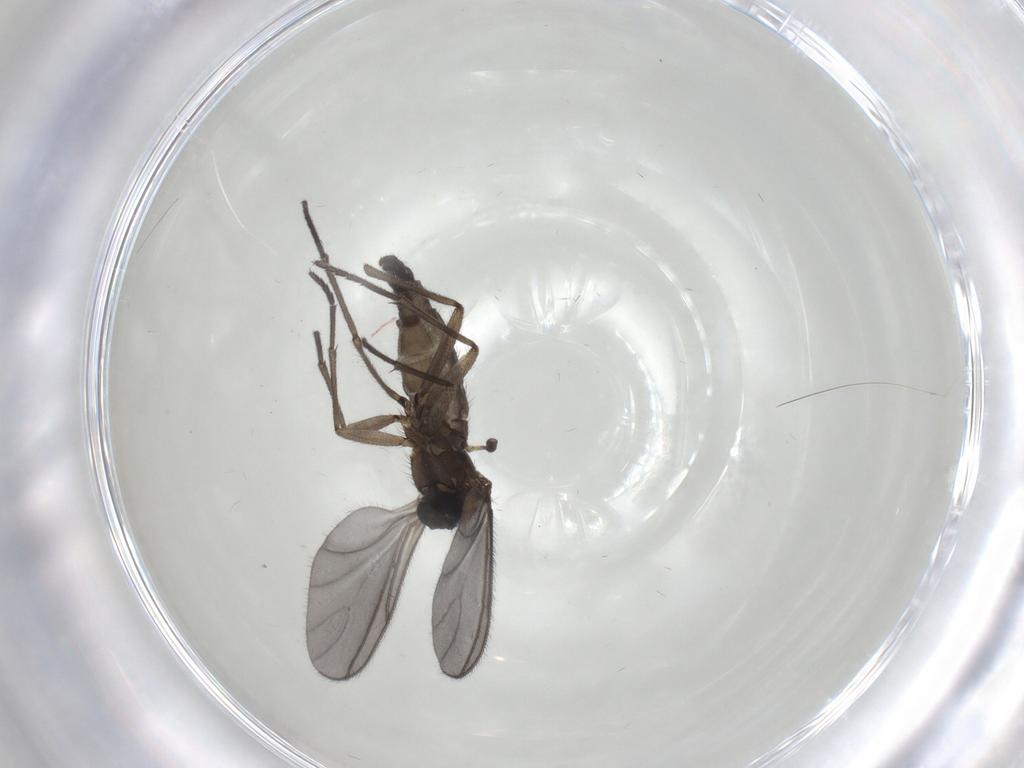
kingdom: Animalia
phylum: Arthropoda
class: Insecta
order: Diptera
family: Cecidomyiidae
